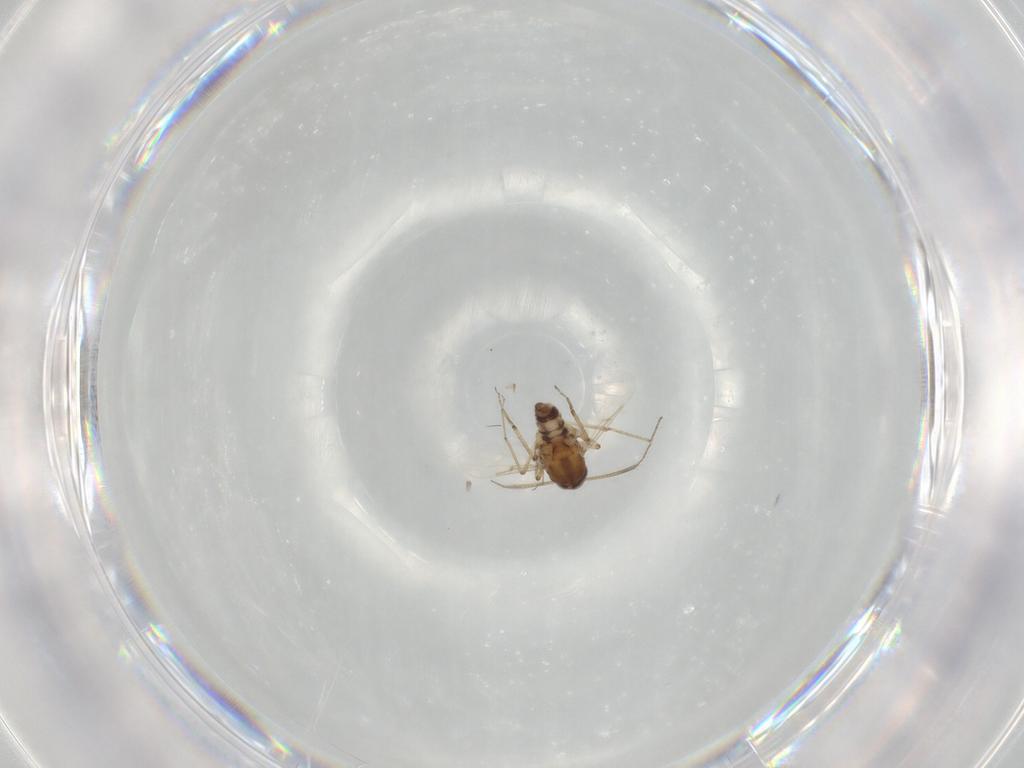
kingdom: Animalia
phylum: Arthropoda
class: Insecta
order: Diptera
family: Ceratopogonidae
